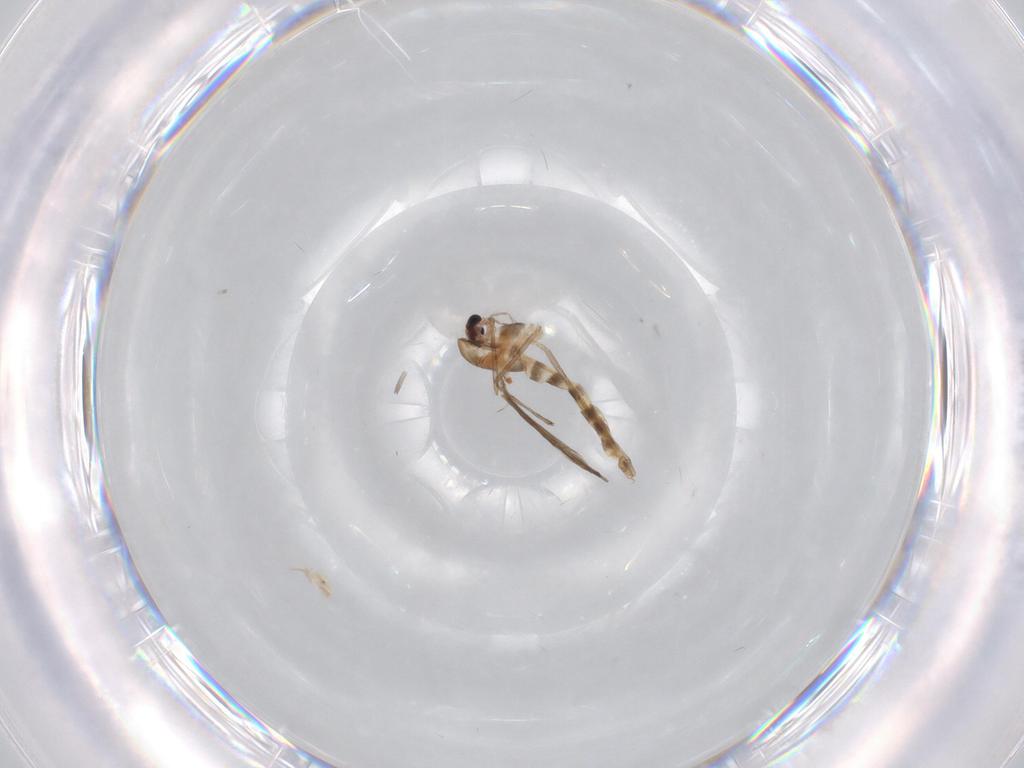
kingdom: Animalia
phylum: Arthropoda
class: Insecta
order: Diptera
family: Chironomidae
